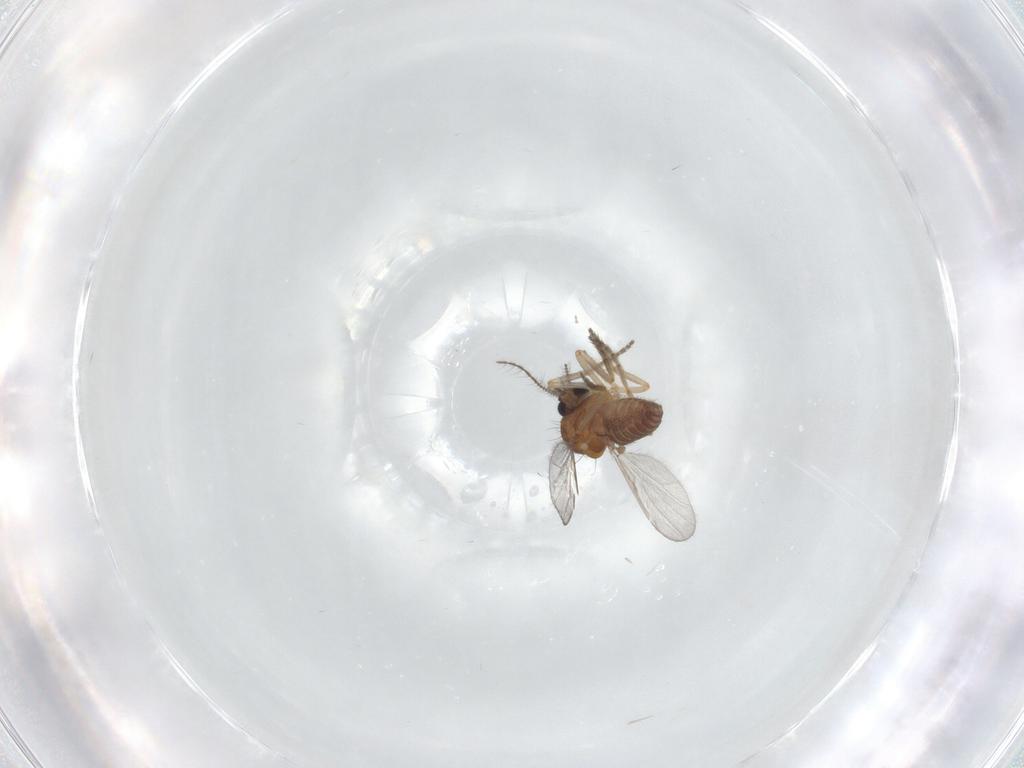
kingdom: Animalia
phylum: Arthropoda
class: Insecta
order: Diptera
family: Ceratopogonidae
